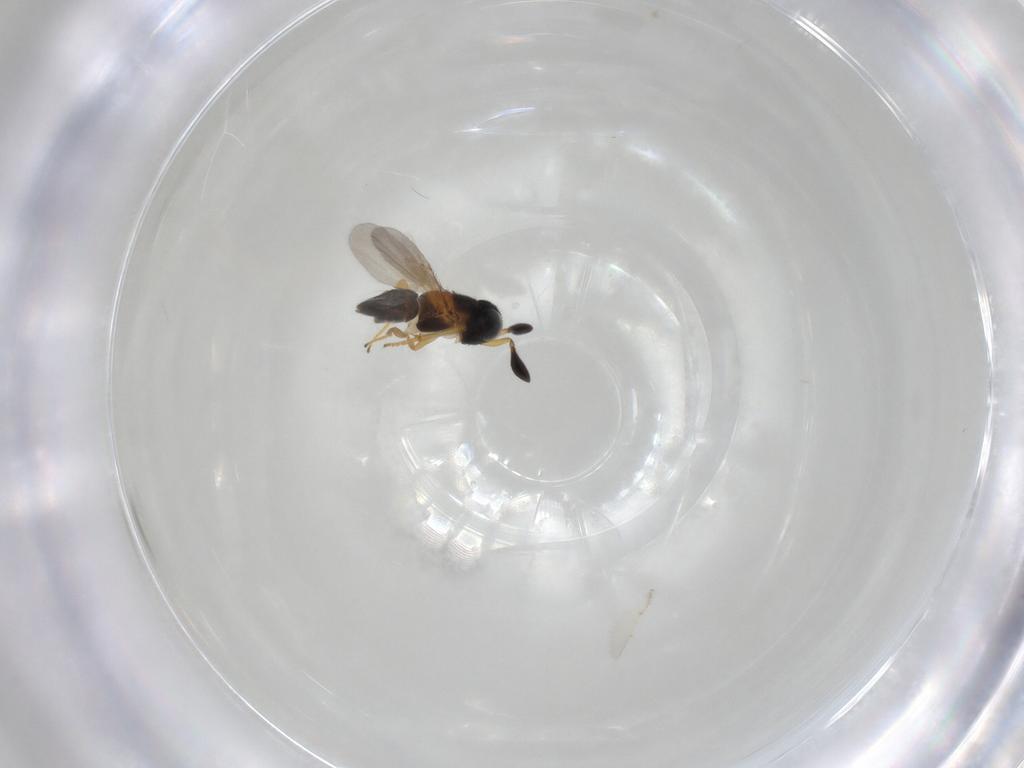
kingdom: Animalia
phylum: Arthropoda
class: Insecta
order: Hymenoptera
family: Encyrtidae
